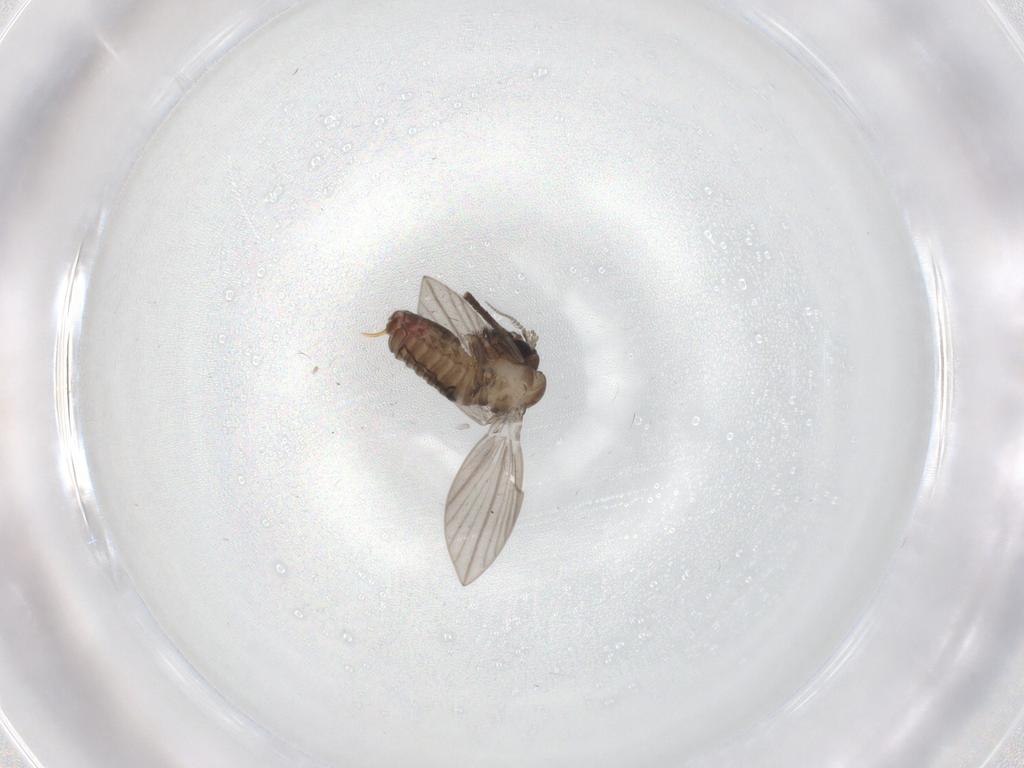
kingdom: Animalia
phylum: Arthropoda
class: Insecta
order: Diptera
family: Psychodidae
